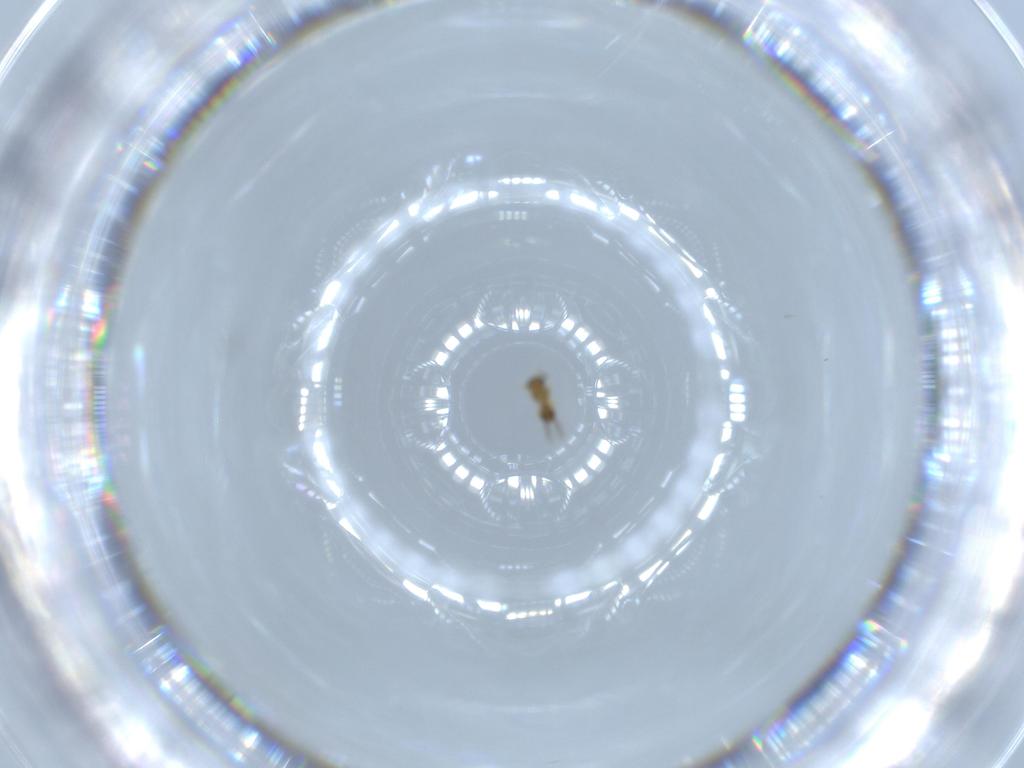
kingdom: Animalia
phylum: Arthropoda
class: Insecta
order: Hymenoptera
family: Platygastridae
